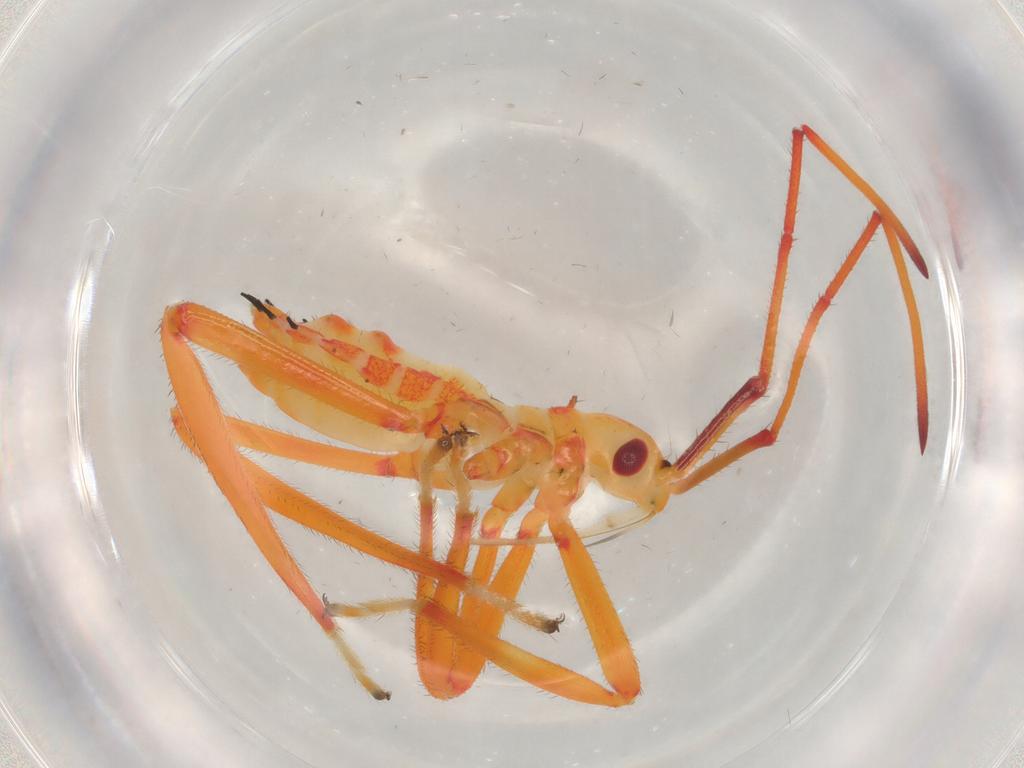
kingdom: Animalia
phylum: Arthropoda
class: Insecta
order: Hemiptera
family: Coreidae
